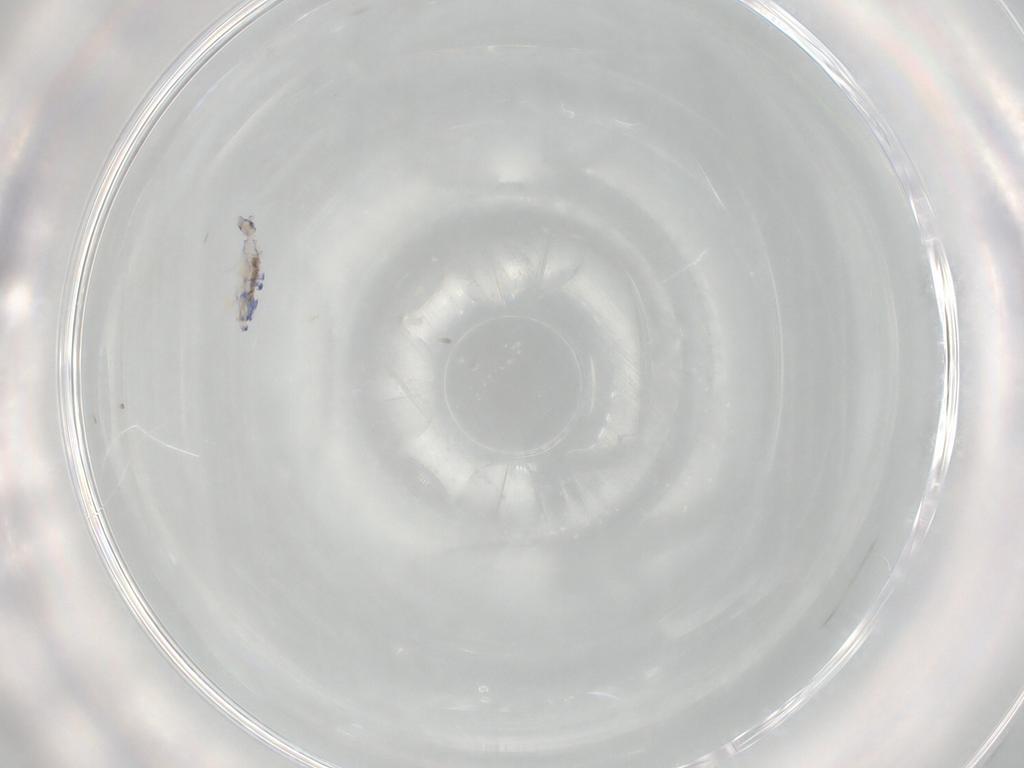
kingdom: Animalia
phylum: Arthropoda
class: Collembola
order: Entomobryomorpha
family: Entomobryidae
